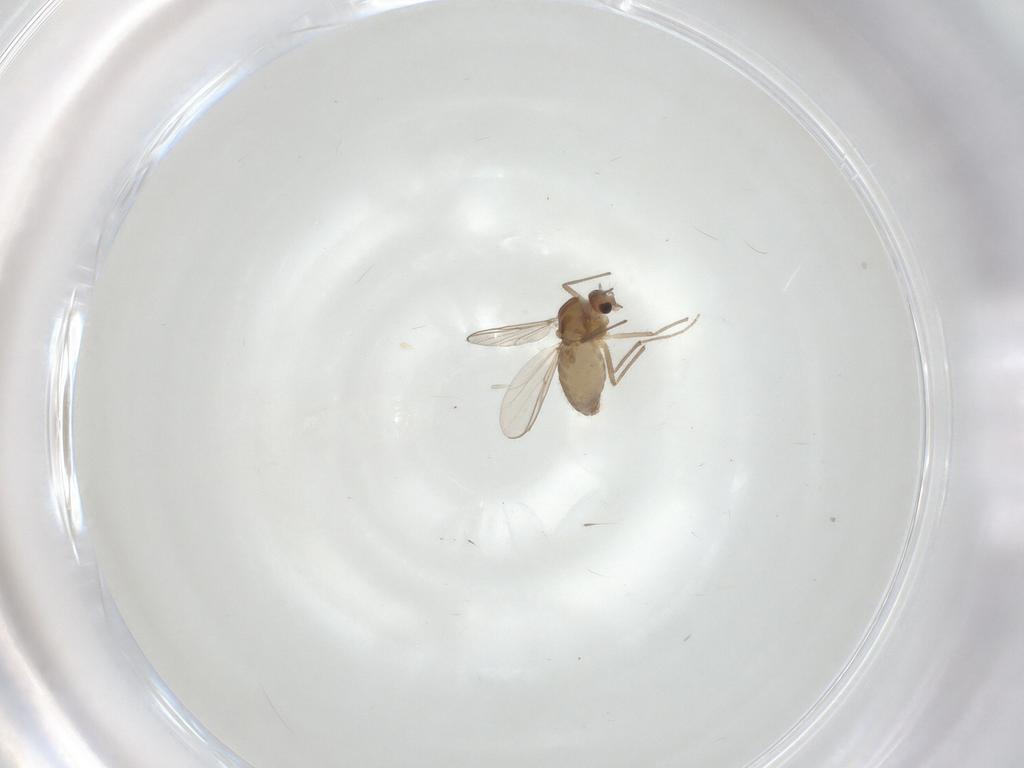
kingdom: Animalia
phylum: Arthropoda
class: Insecta
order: Diptera
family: Chironomidae
